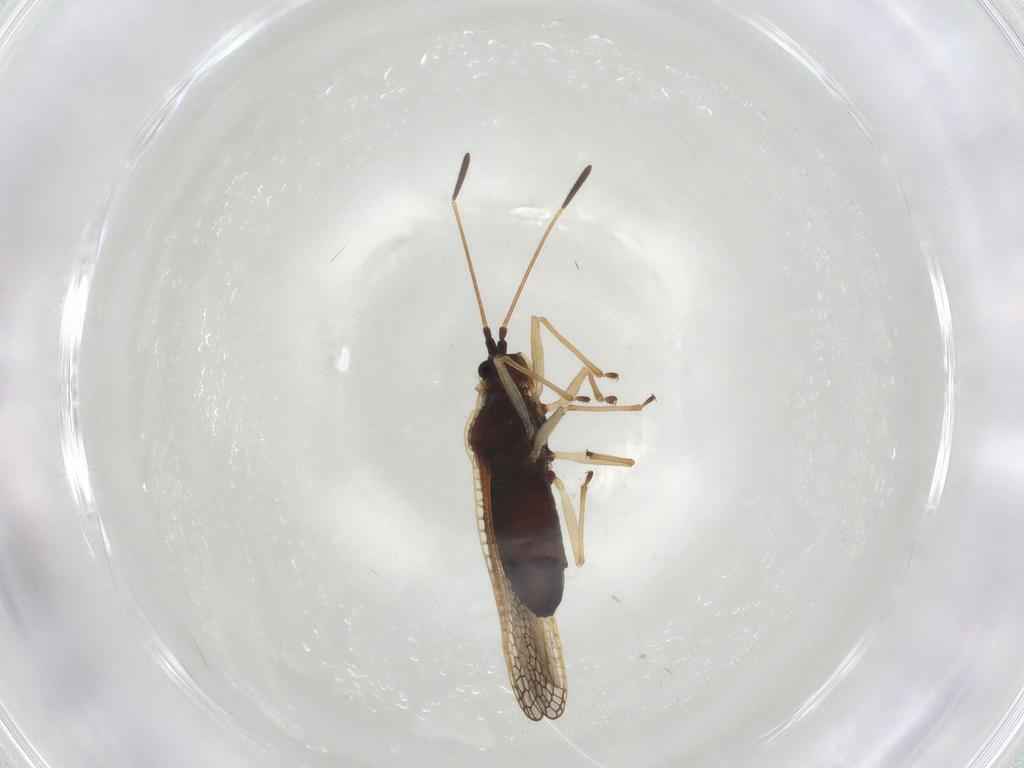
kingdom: Animalia
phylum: Arthropoda
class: Insecta
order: Hemiptera
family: Tingidae
